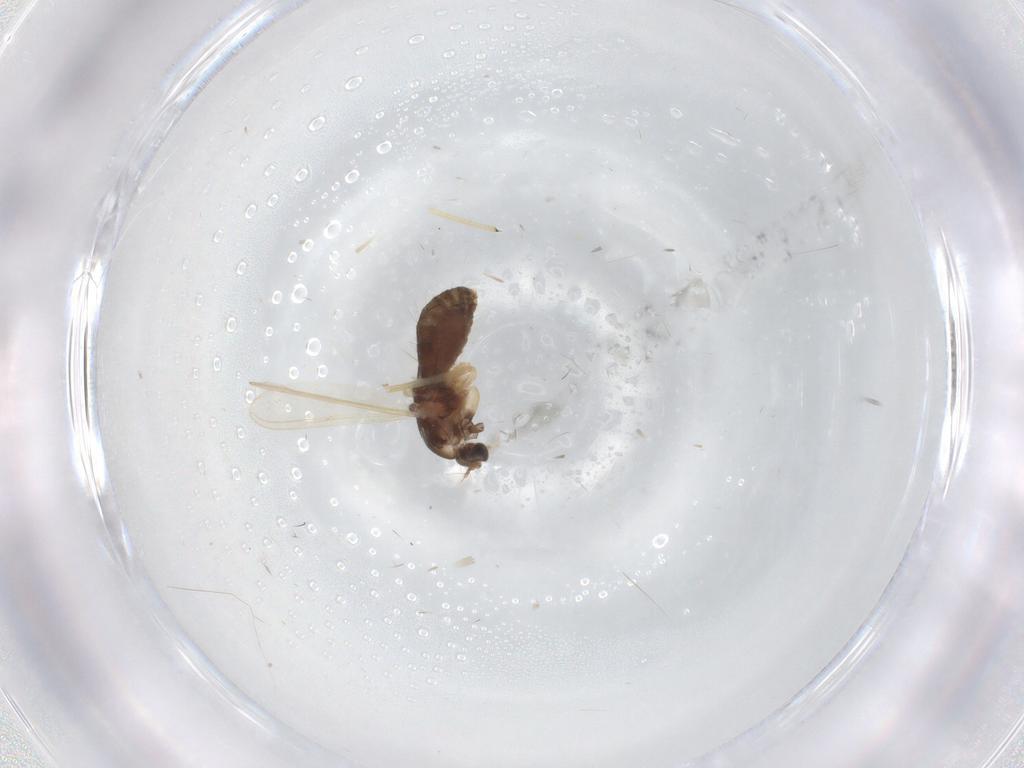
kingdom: Animalia
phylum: Arthropoda
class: Insecta
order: Diptera
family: Chironomidae
